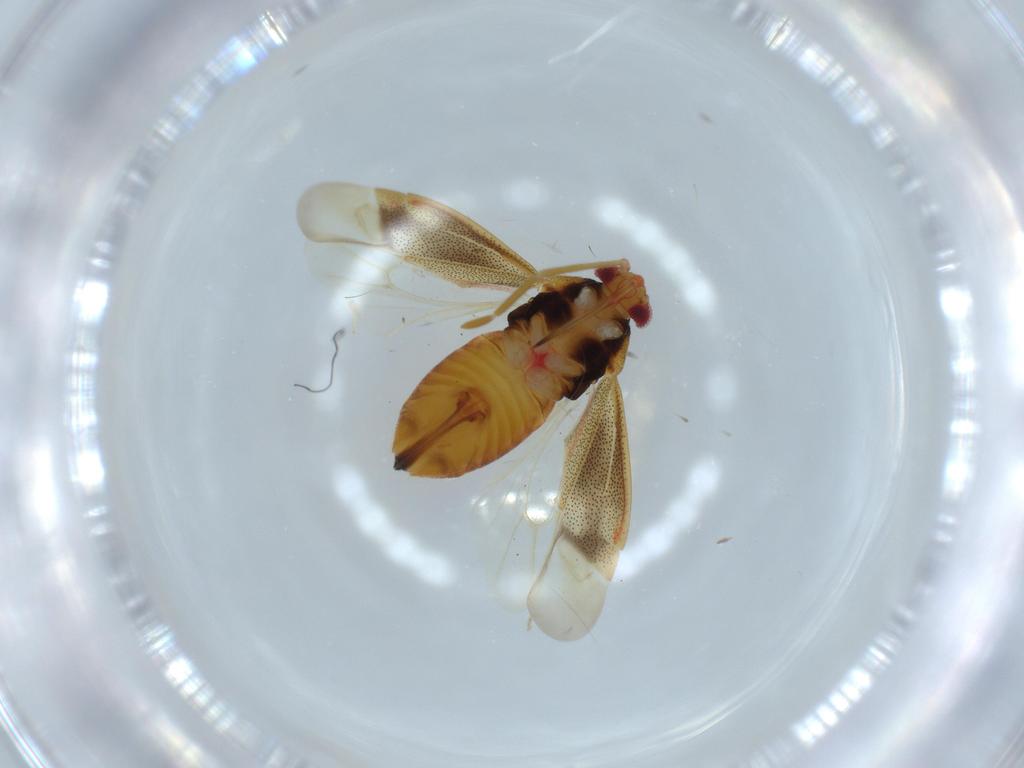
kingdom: Animalia
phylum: Arthropoda
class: Insecta
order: Hemiptera
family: Miridae
